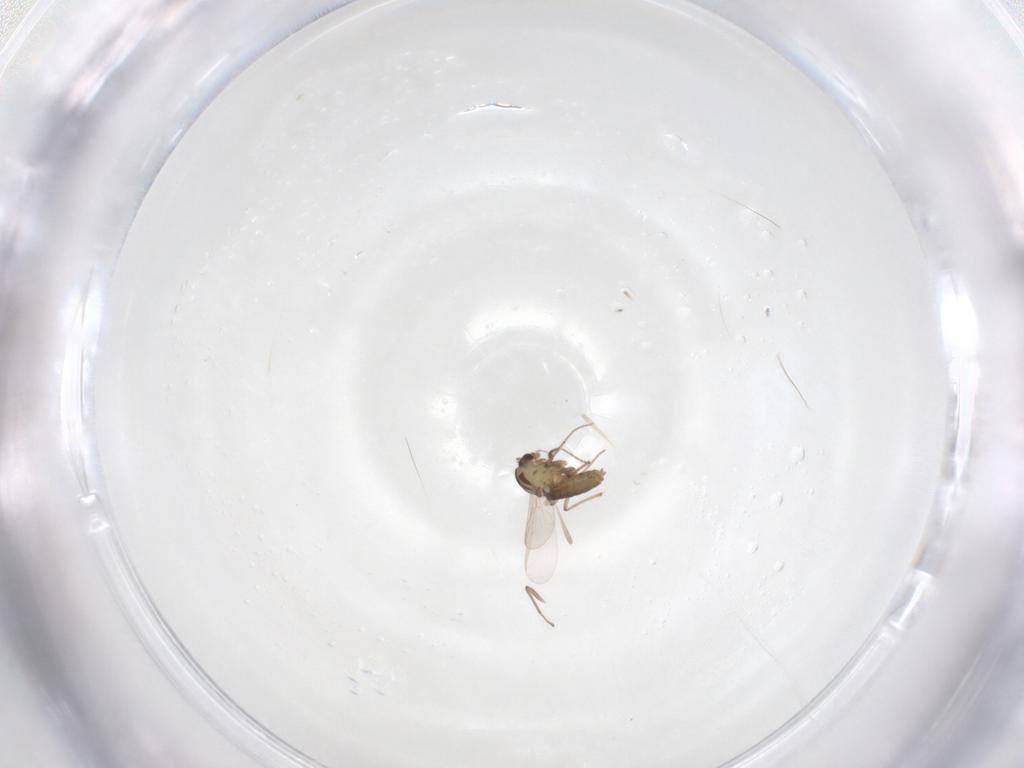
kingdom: Animalia
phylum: Arthropoda
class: Insecta
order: Diptera
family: Chironomidae
